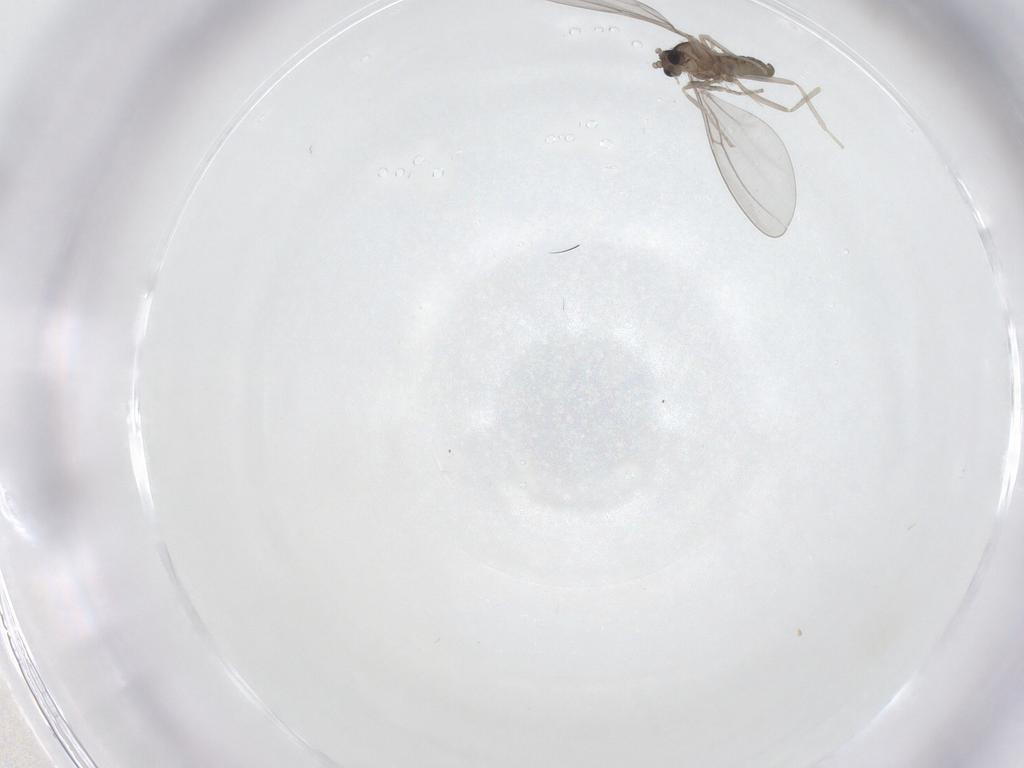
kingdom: Animalia
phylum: Arthropoda
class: Insecta
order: Diptera
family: Cecidomyiidae
